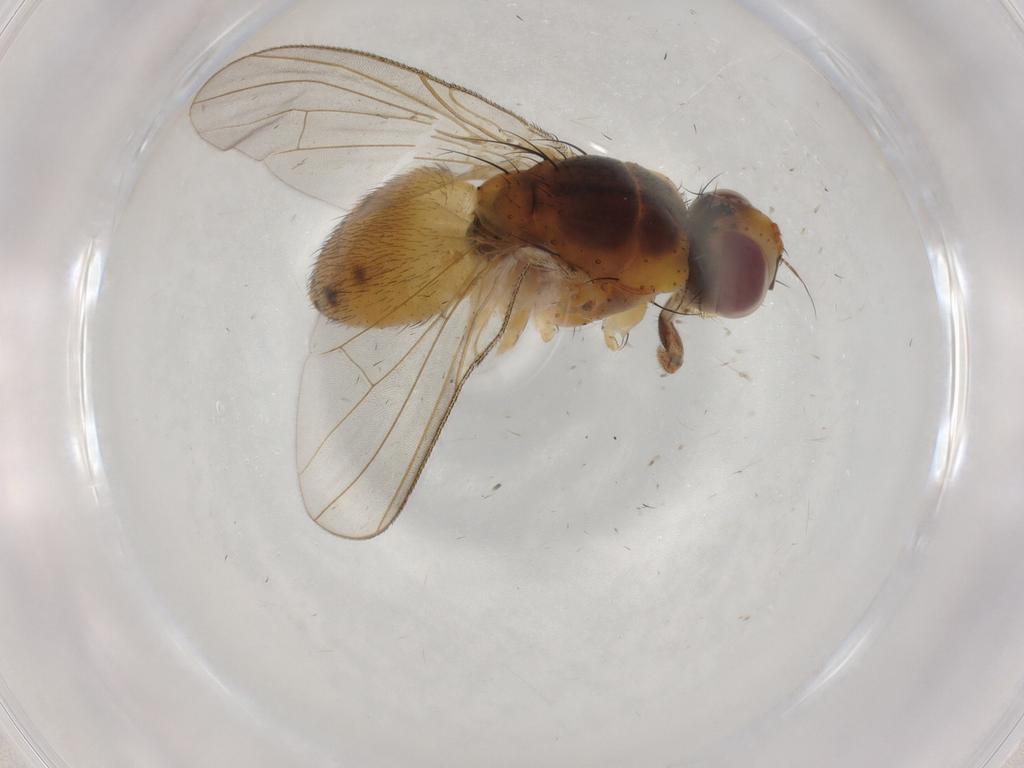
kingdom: Animalia
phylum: Arthropoda
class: Insecta
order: Diptera
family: Muscidae
